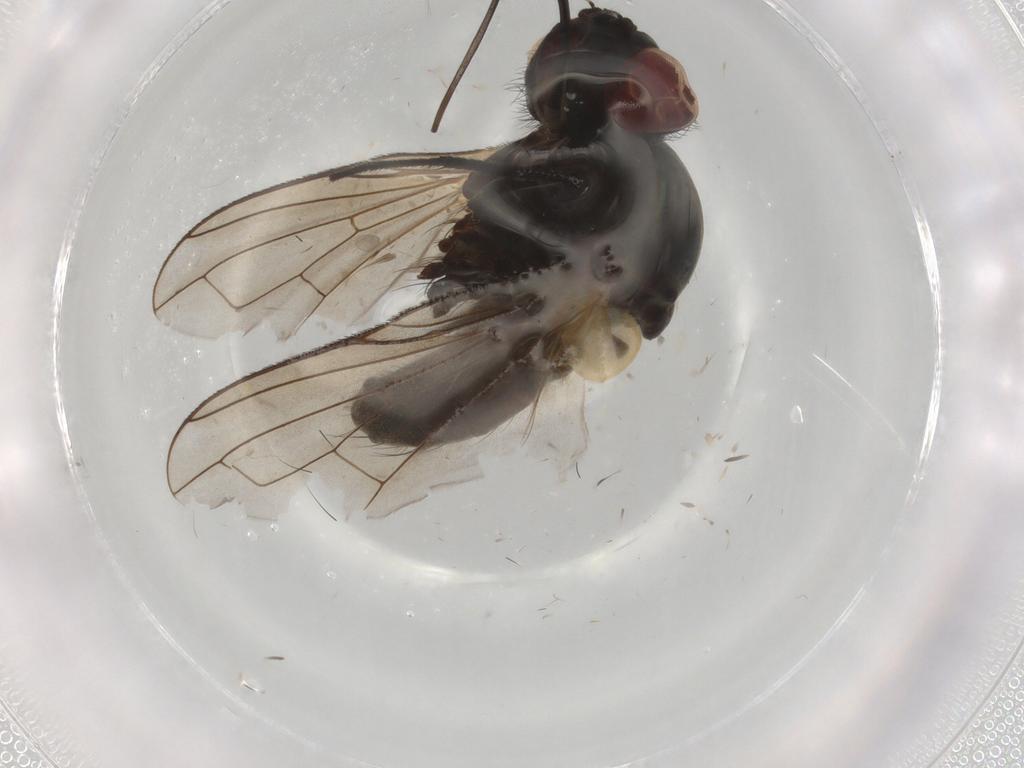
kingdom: Animalia
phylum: Arthropoda
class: Insecta
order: Diptera
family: Tachinidae
